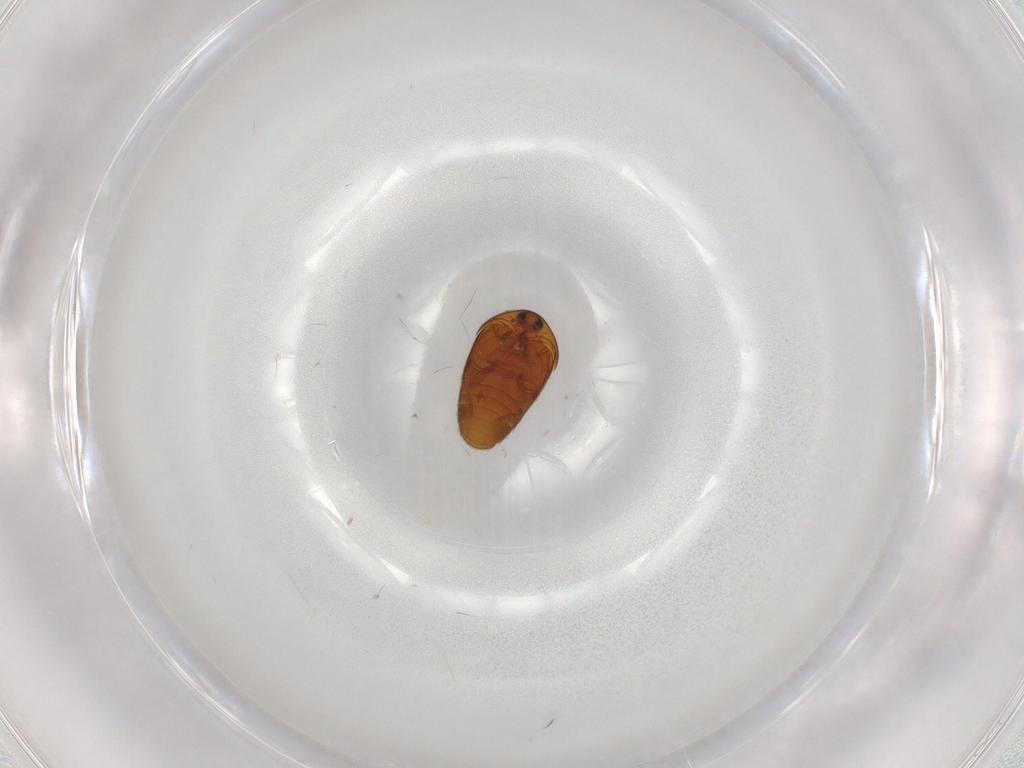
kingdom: Animalia
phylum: Arthropoda
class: Insecta
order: Coleoptera
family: Corylophidae
